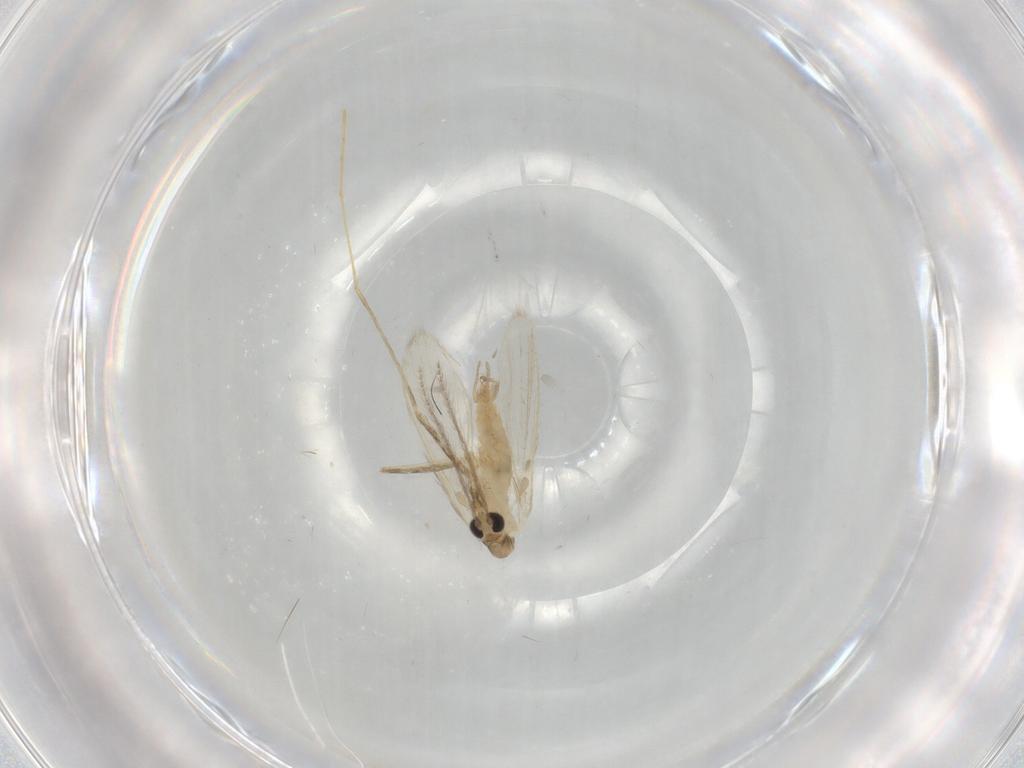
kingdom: Animalia
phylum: Arthropoda
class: Insecta
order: Diptera
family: Psychodidae
